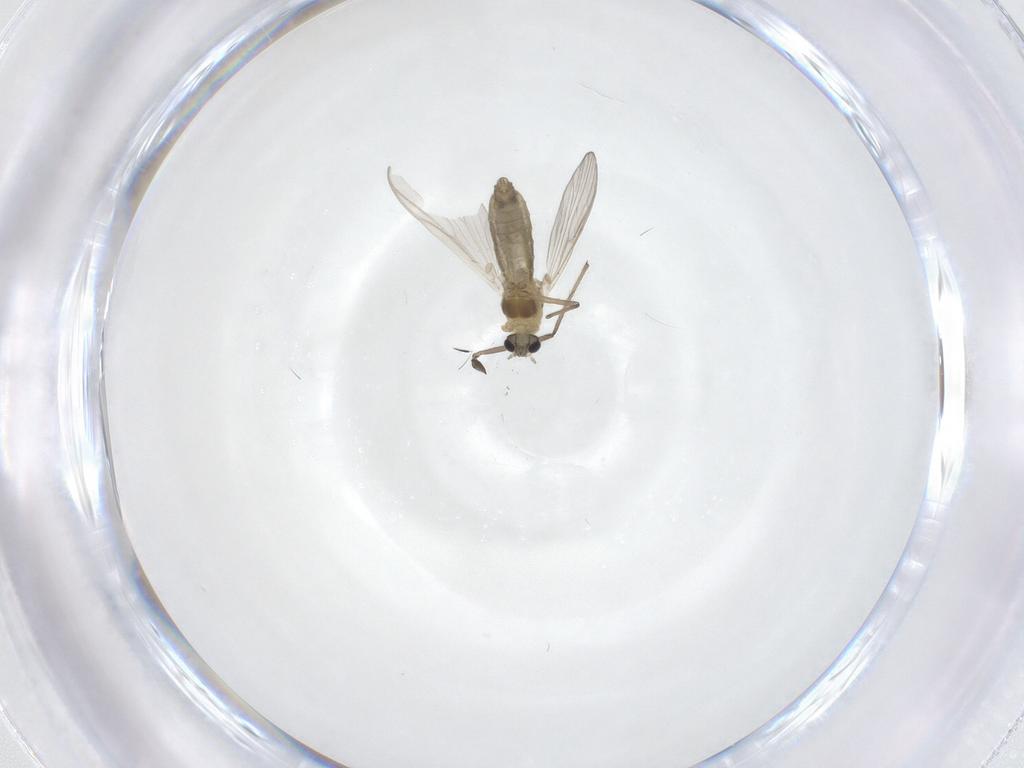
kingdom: Animalia
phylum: Arthropoda
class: Insecta
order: Diptera
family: Chironomidae
